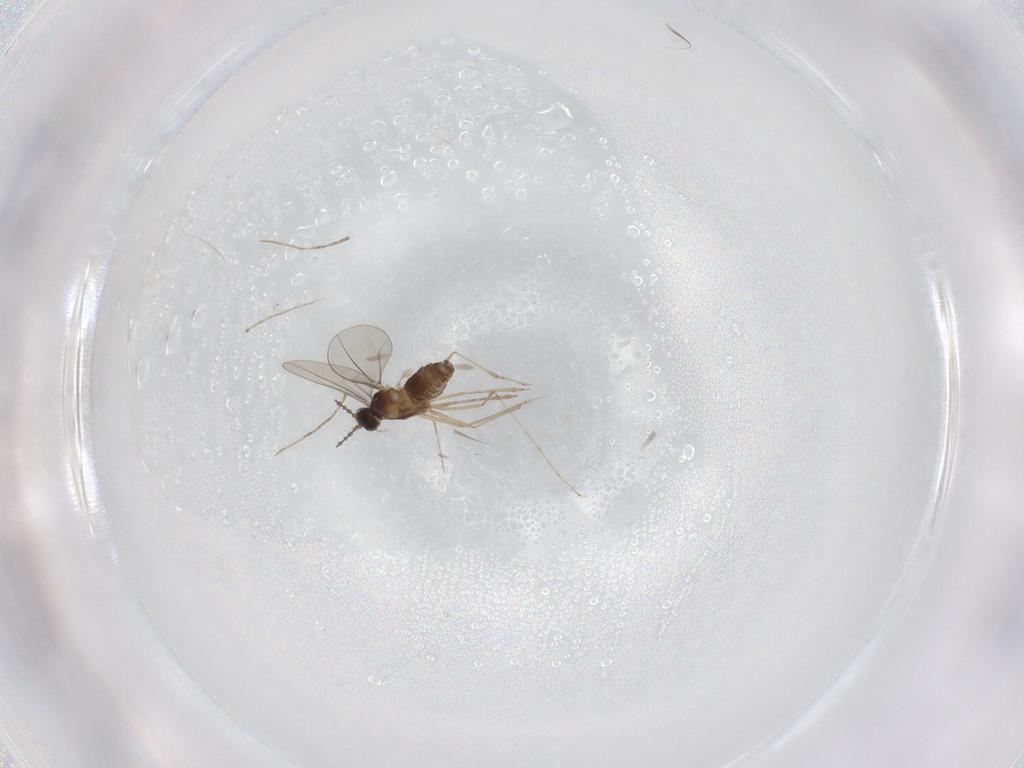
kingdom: Animalia
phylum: Arthropoda
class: Insecta
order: Diptera
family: Cecidomyiidae
